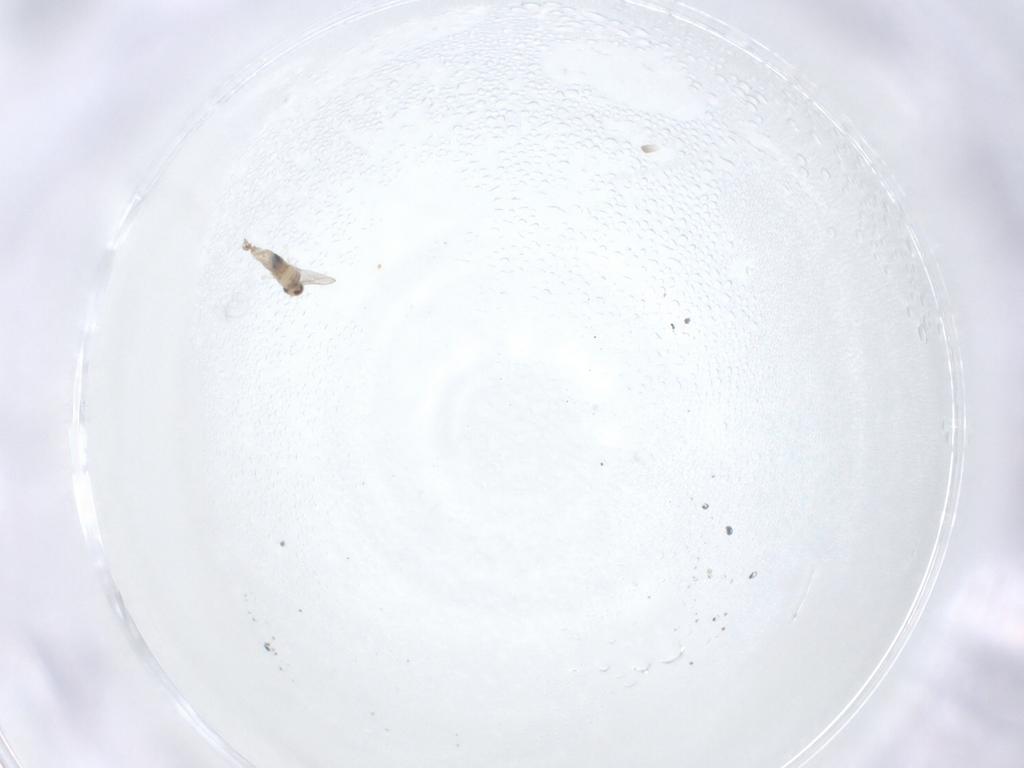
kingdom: Animalia
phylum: Arthropoda
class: Insecta
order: Diptera
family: Cecidomyiidae
